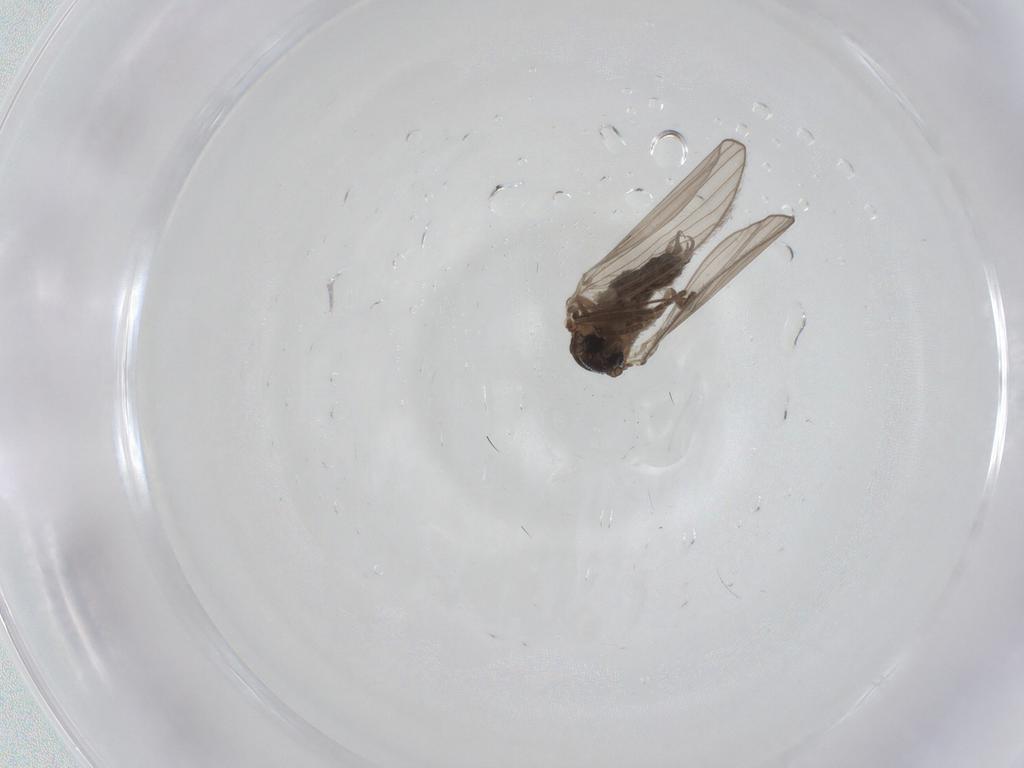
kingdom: Animalia
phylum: Arthropoda
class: Insecta
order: Diptera
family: Psychodidae
